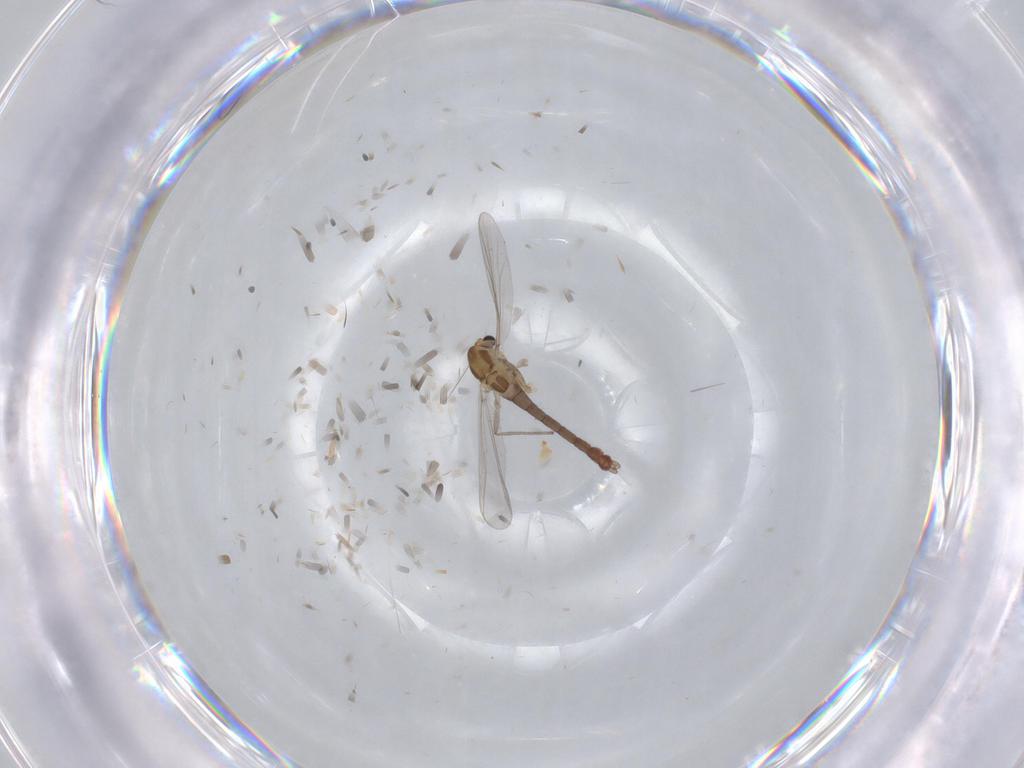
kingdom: Animalia
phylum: Arthropoda
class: Insecta
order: Diptera
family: Chironomidae
